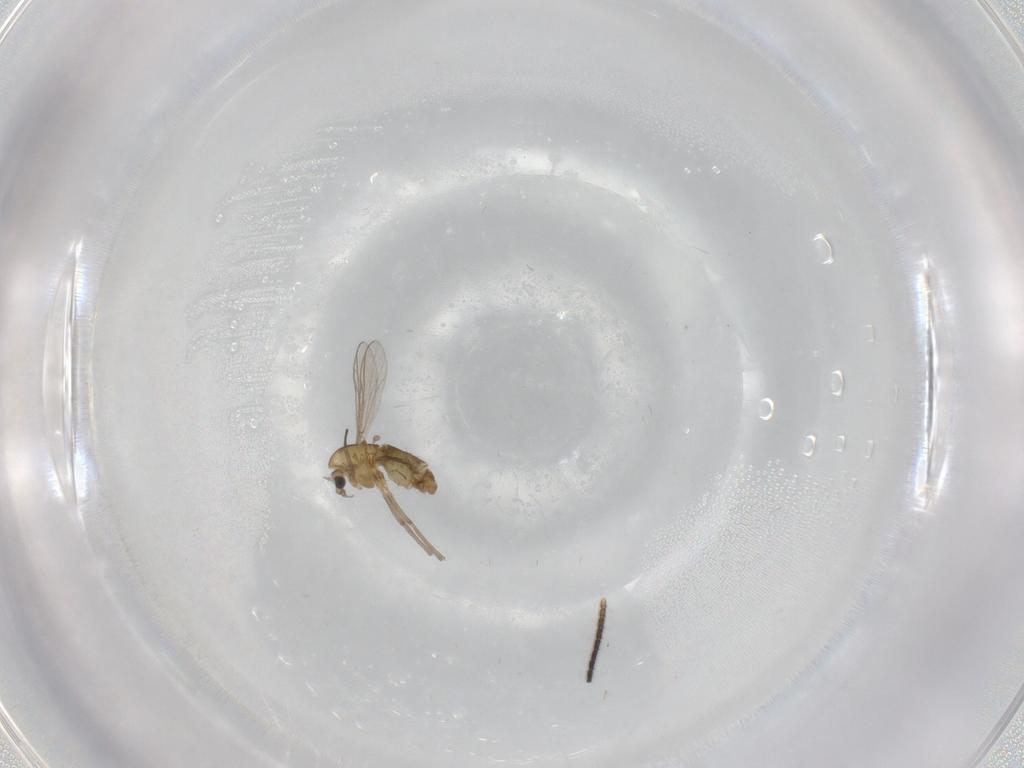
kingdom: Animalia
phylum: Arthropoda
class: Insecta
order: Diptera
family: Chironomidae
